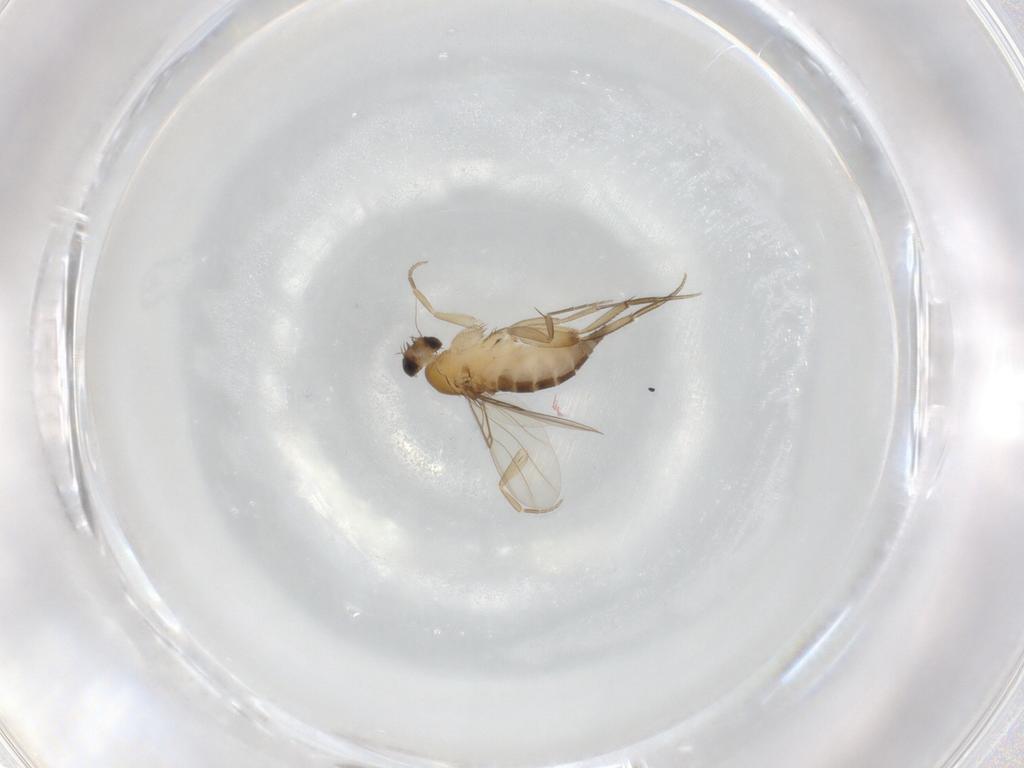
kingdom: Animalia
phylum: Arthropoda
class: Insecta
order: Diptera
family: Phoridae
